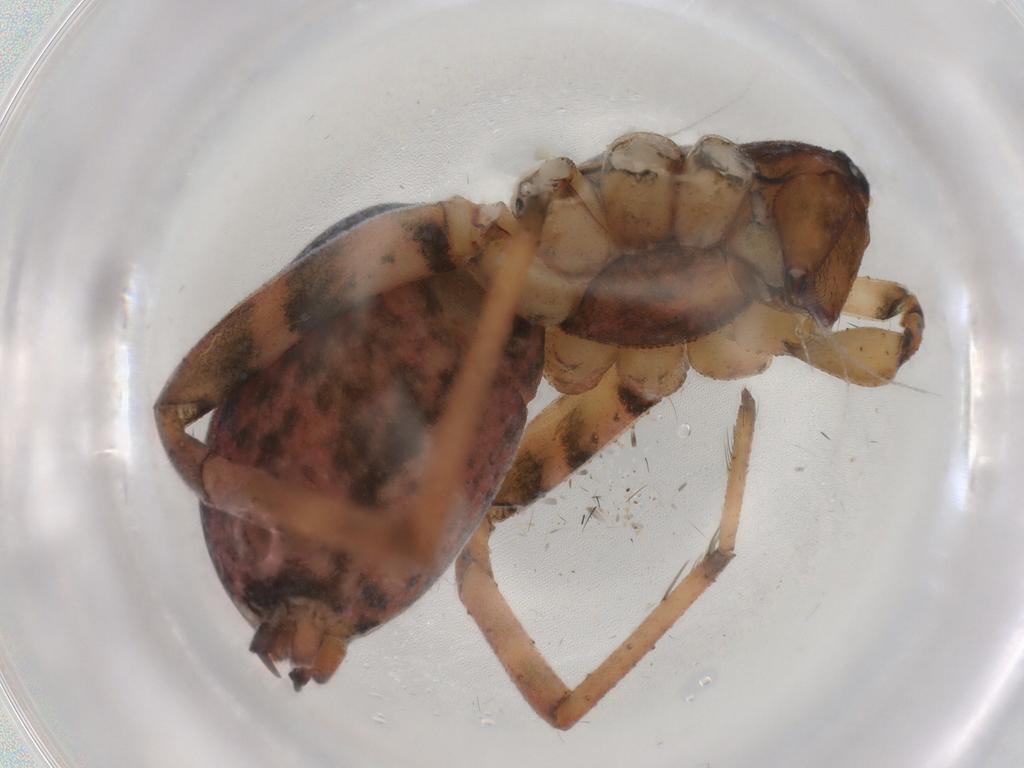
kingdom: Animalia
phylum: Arthropoda
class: Arachnida
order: Araneae
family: Agelenidae
